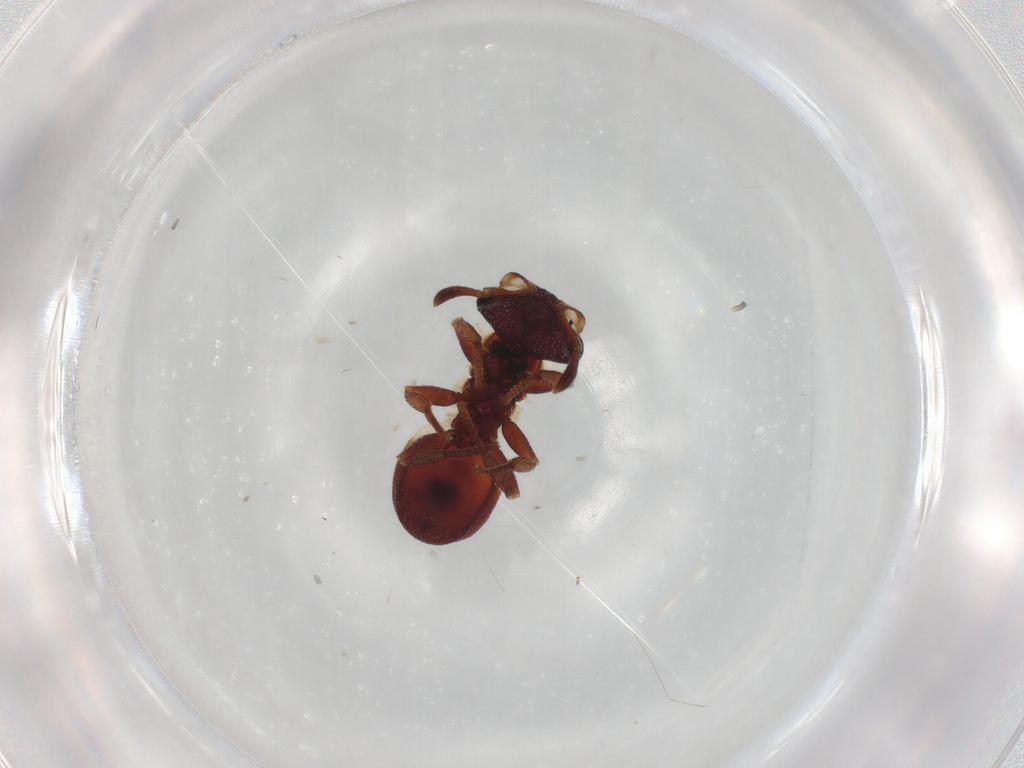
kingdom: Animalia
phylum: Arthropoda
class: Insecta
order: Hymenoptera
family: Formicidae
